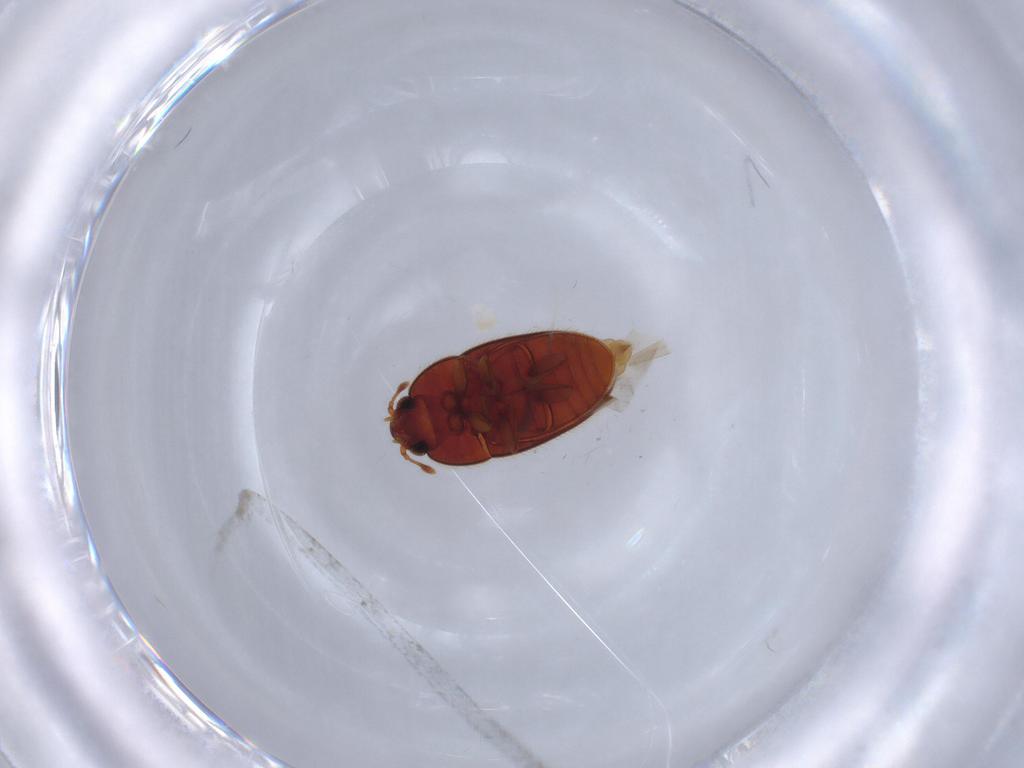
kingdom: Animalia
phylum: Arthropoda
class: Insecta
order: Coleoptera
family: Biphyllidae
